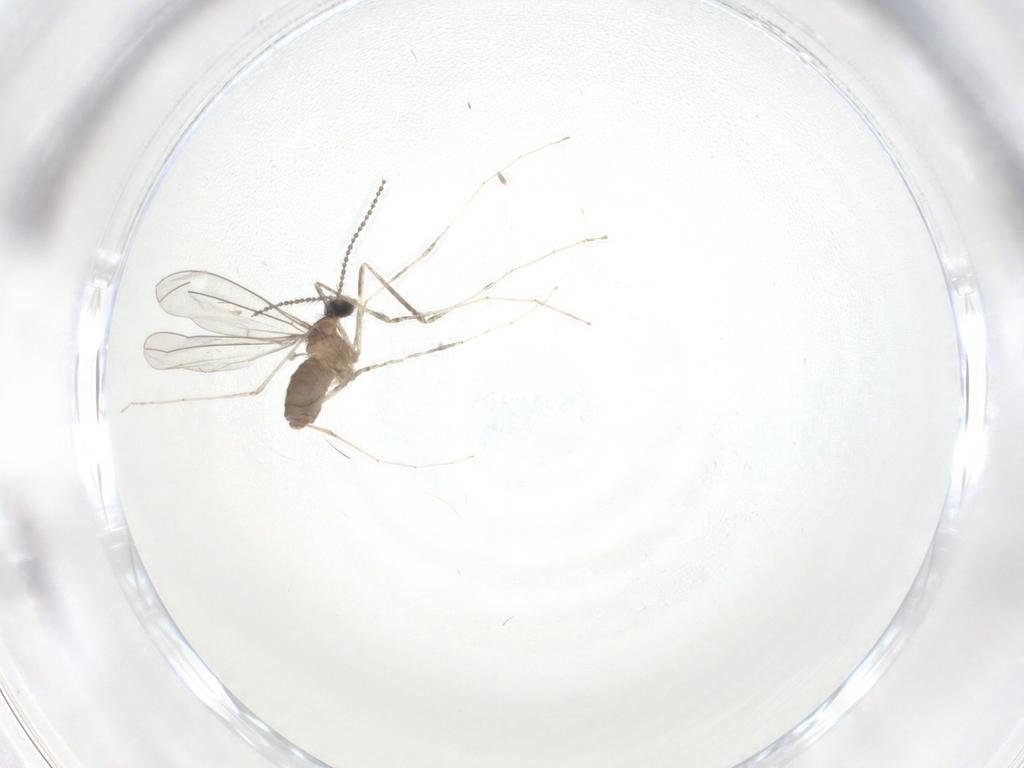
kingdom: Animalia
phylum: Arthropoda
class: Insecta
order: Diptera
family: Cecidomyiidae
